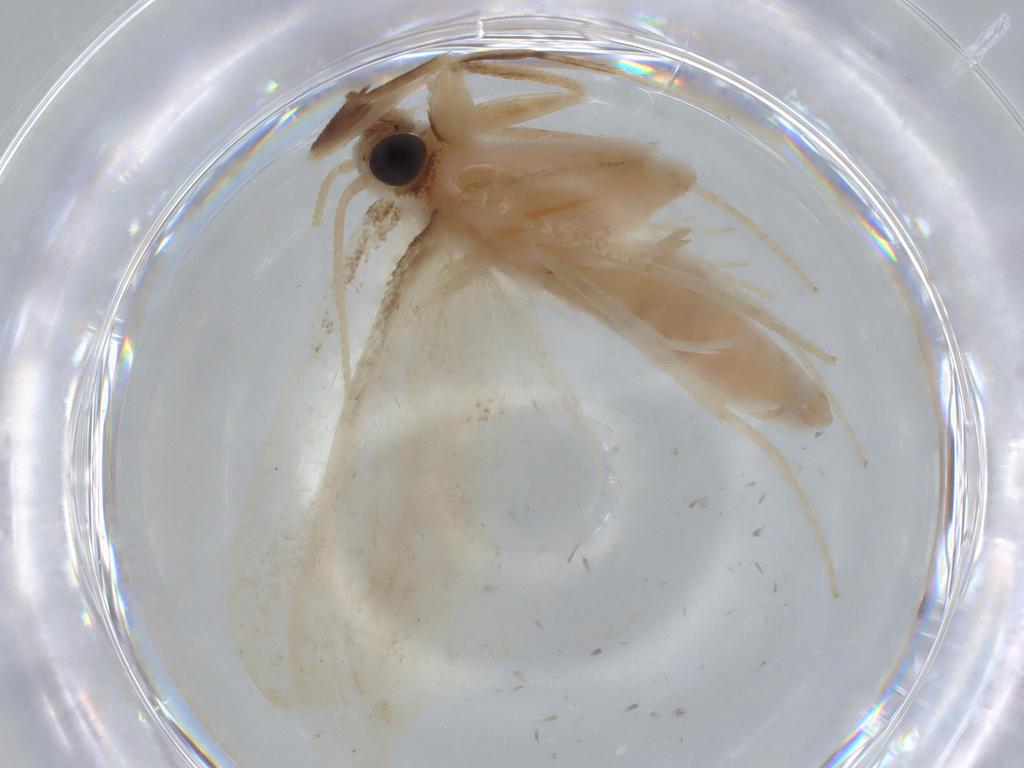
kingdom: Animalia
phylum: Arthropoda
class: Insecta
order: Lepidoptera
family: Crambidae
